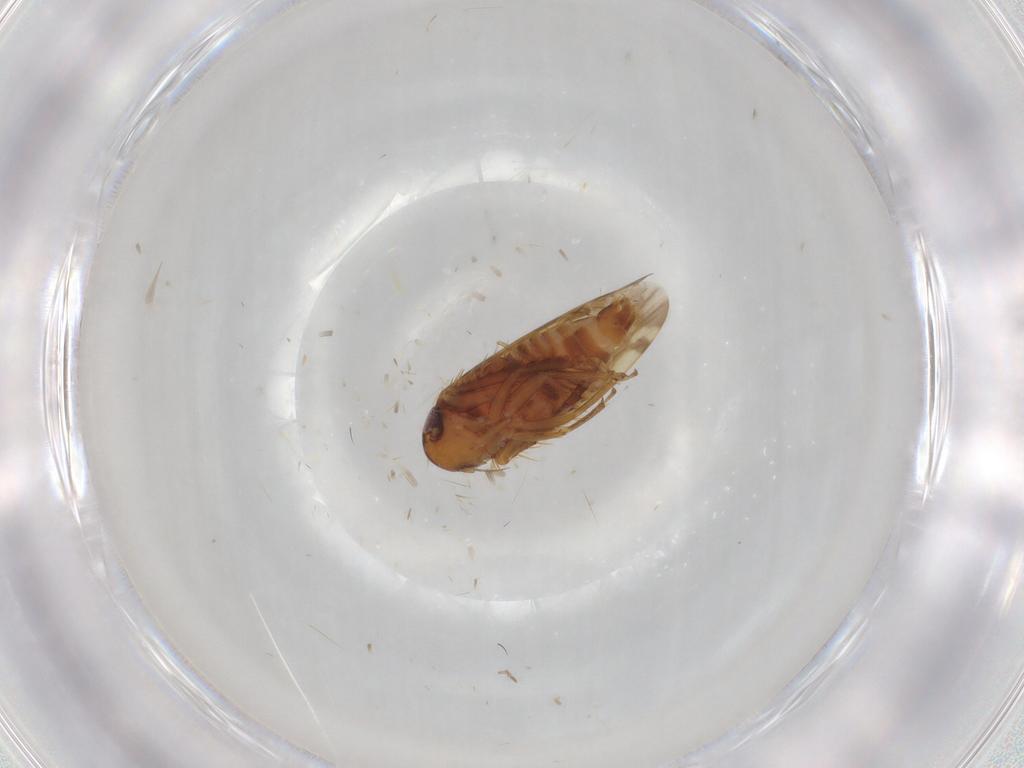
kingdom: Animalia
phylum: Arthropoda
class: Insecta
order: Hemiptera
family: Cicadellidae
